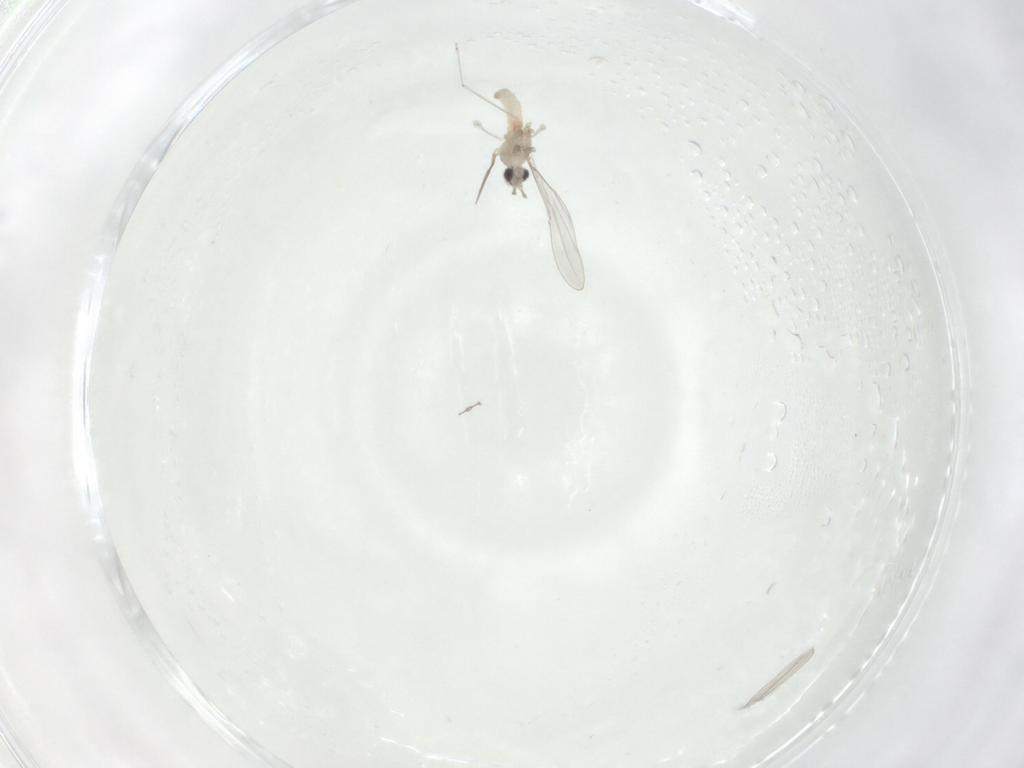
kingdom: Animalia
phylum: Arthropoda
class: Insecta
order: Diptera
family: Cecidomyiidae
